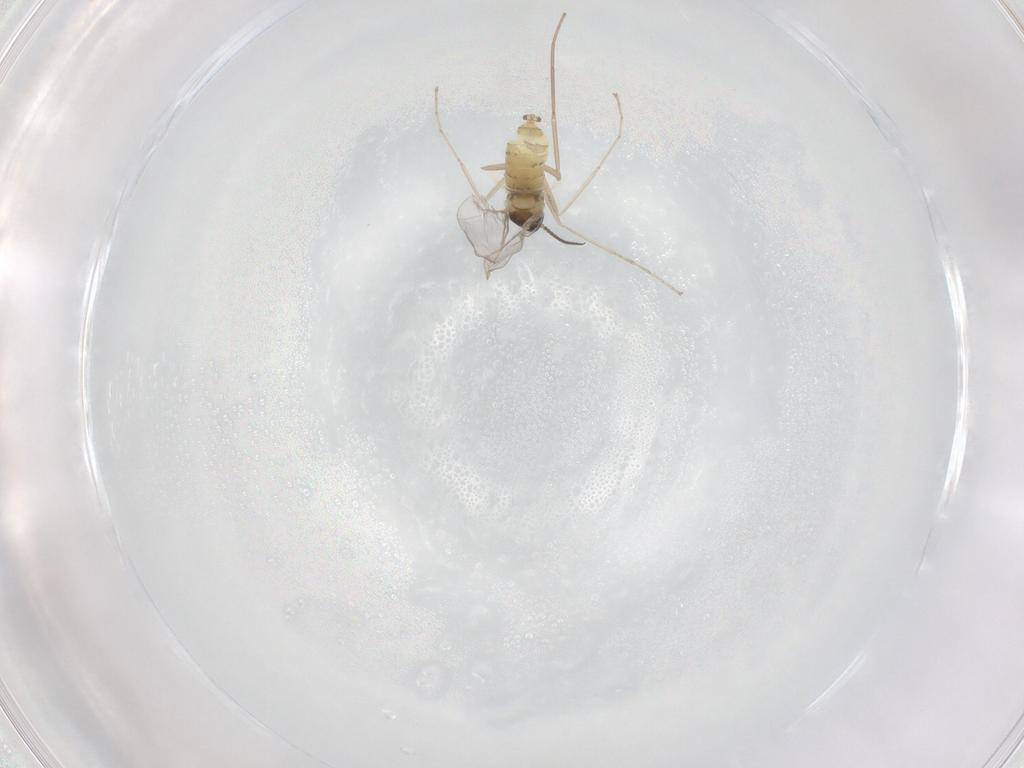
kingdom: Animalia
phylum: Arthropoda
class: Insecta
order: Diptera
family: Cecidomyiidae
